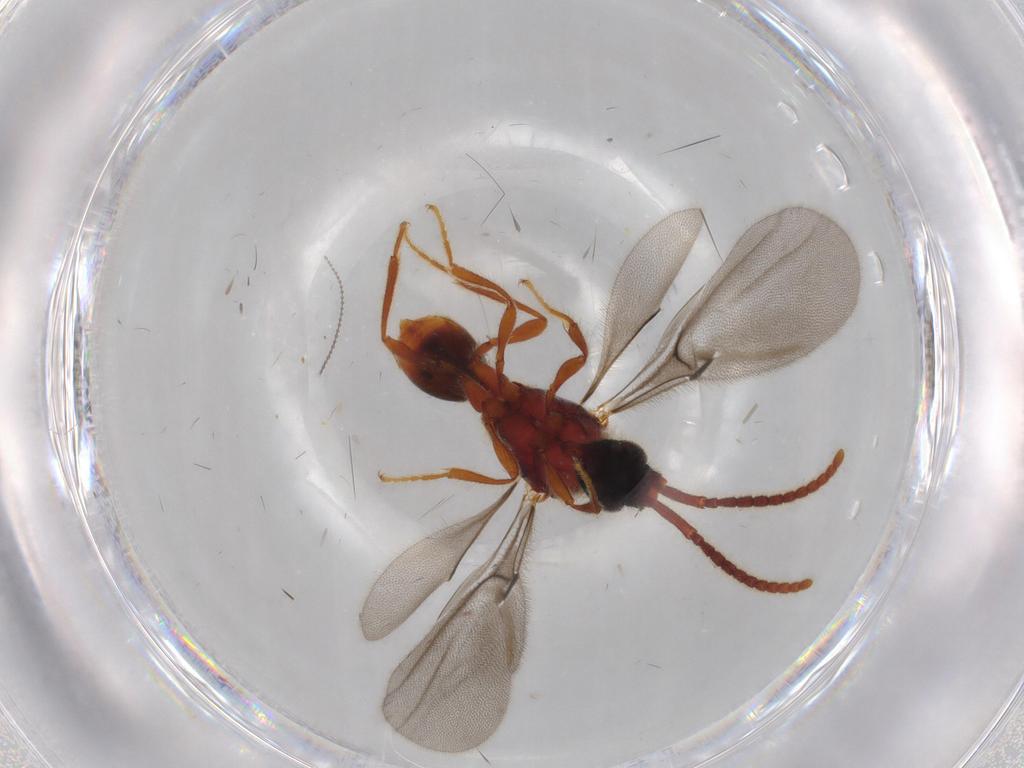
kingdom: Animalia
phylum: Arthropoda
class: Insecta
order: Hymenoptera
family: Diapriidae
